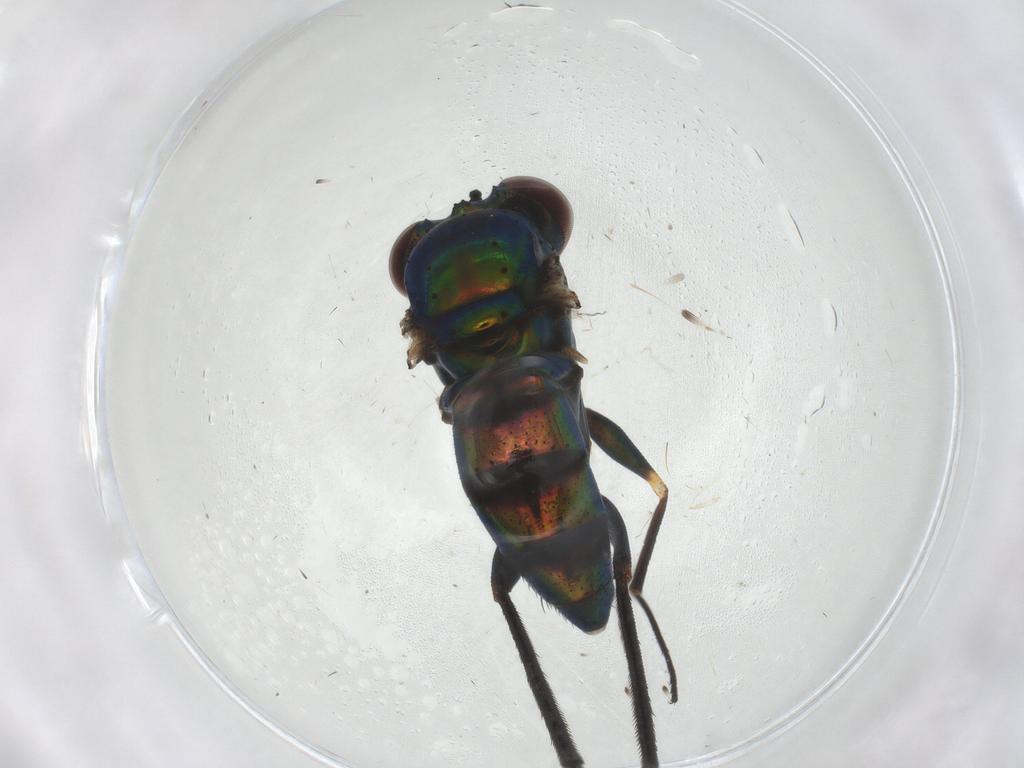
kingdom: Animalia
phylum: Arthropoda
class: Insecta
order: Diptera
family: Dolichopodidae
